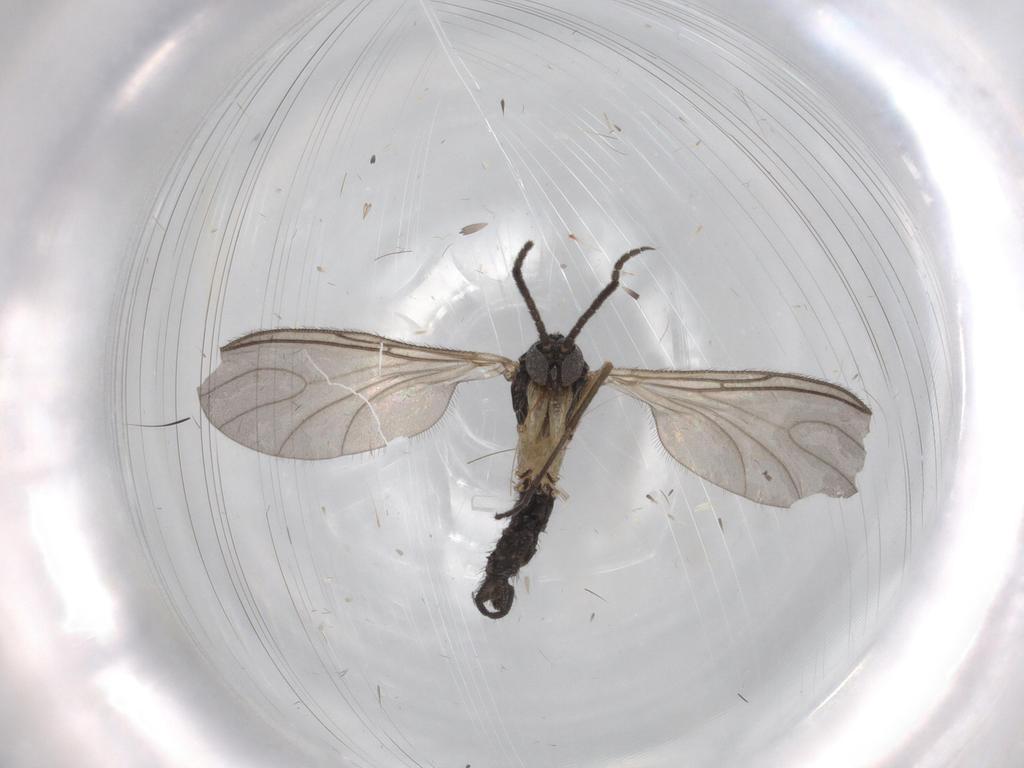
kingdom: Animalia
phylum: Arthropoda
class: Insecta
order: Diptera
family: Sciaridae
